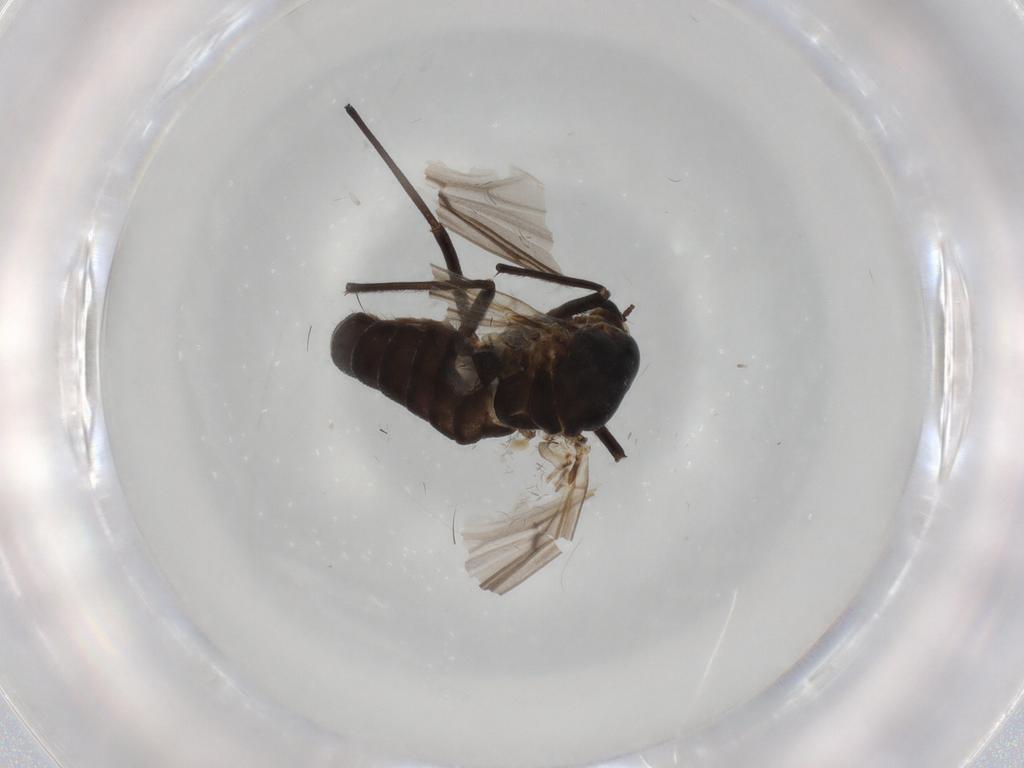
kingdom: Animalia
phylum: Arthropoda
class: Insecta
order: Diptera
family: Chironomidae
